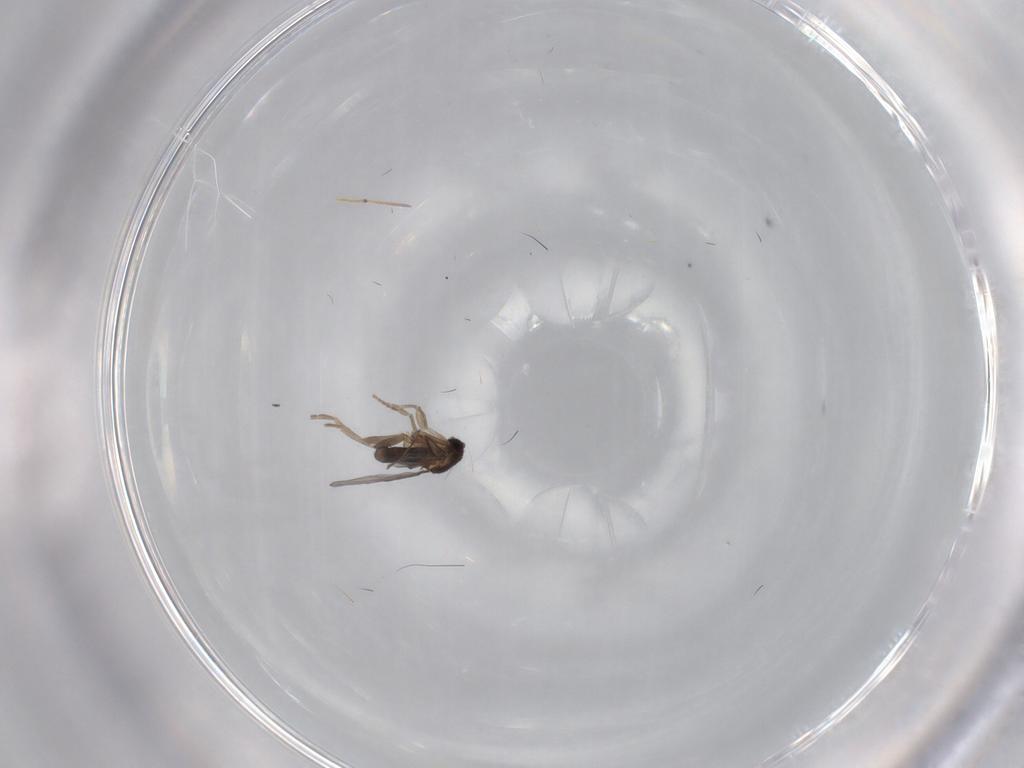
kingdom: Animalia
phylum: Arthropoda
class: Insecta
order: Diptera
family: Phoridae
